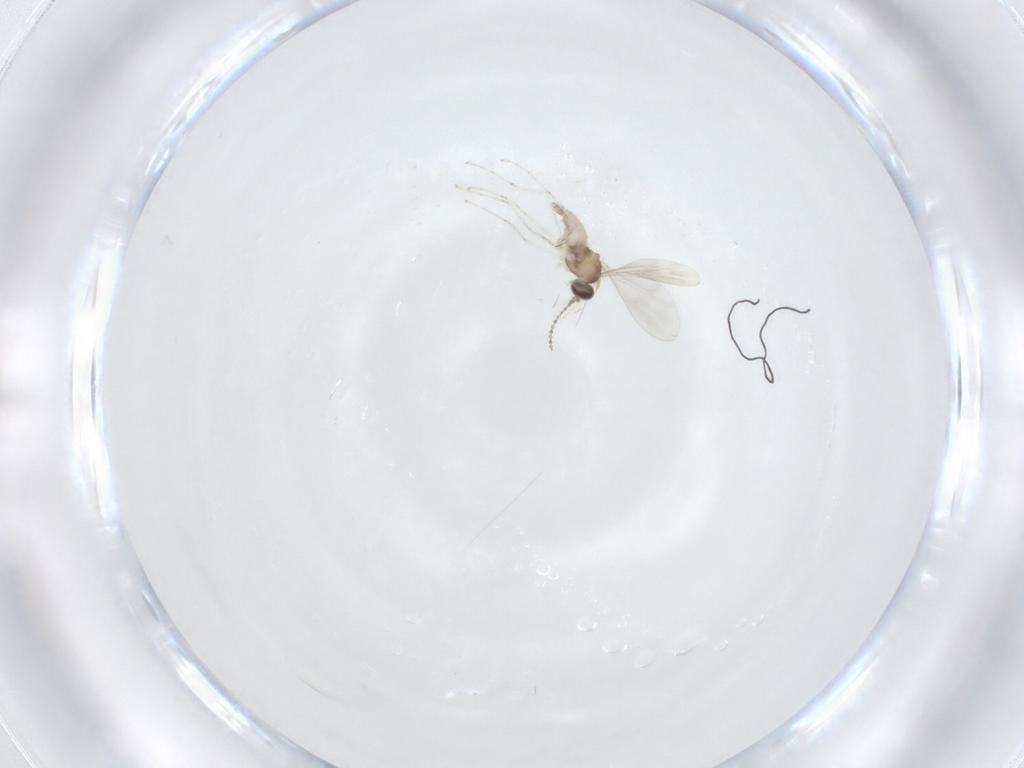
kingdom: Animalia
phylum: Arthropoda
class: Insecta
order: Diptera
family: Cecidomyiidae
